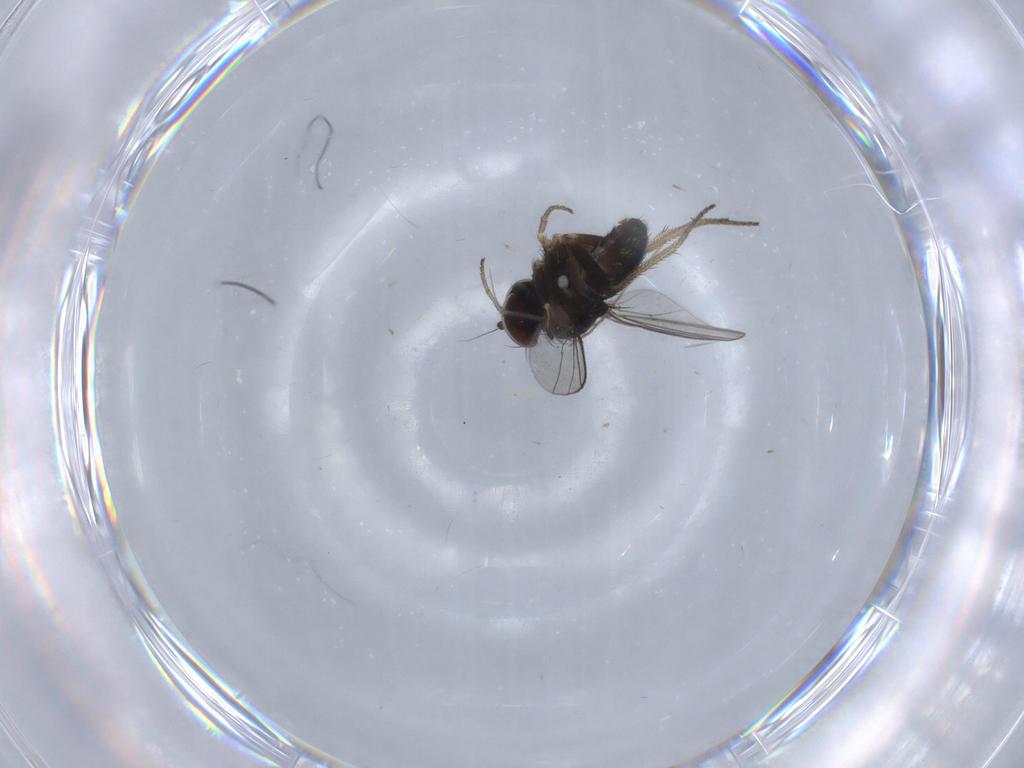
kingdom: Animalia
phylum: Arthropoda
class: Insecta
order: Diptera
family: Chironomidae
